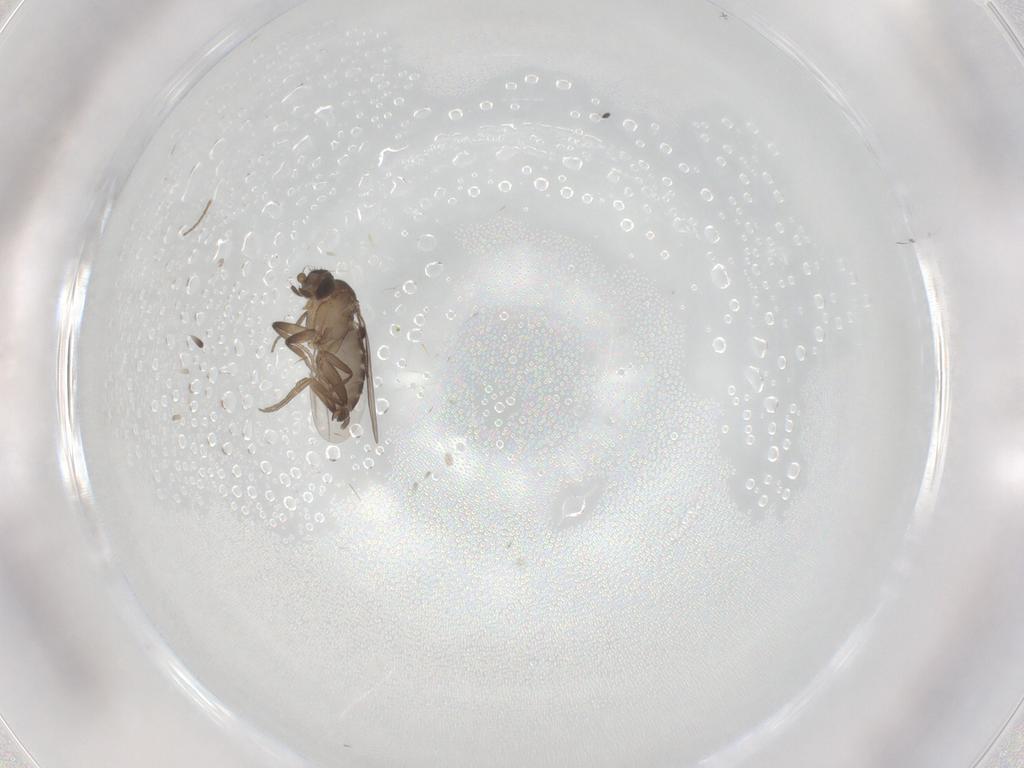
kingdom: Animalia
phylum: Arthropoda
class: Insecta
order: Diptera
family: Phoridae
